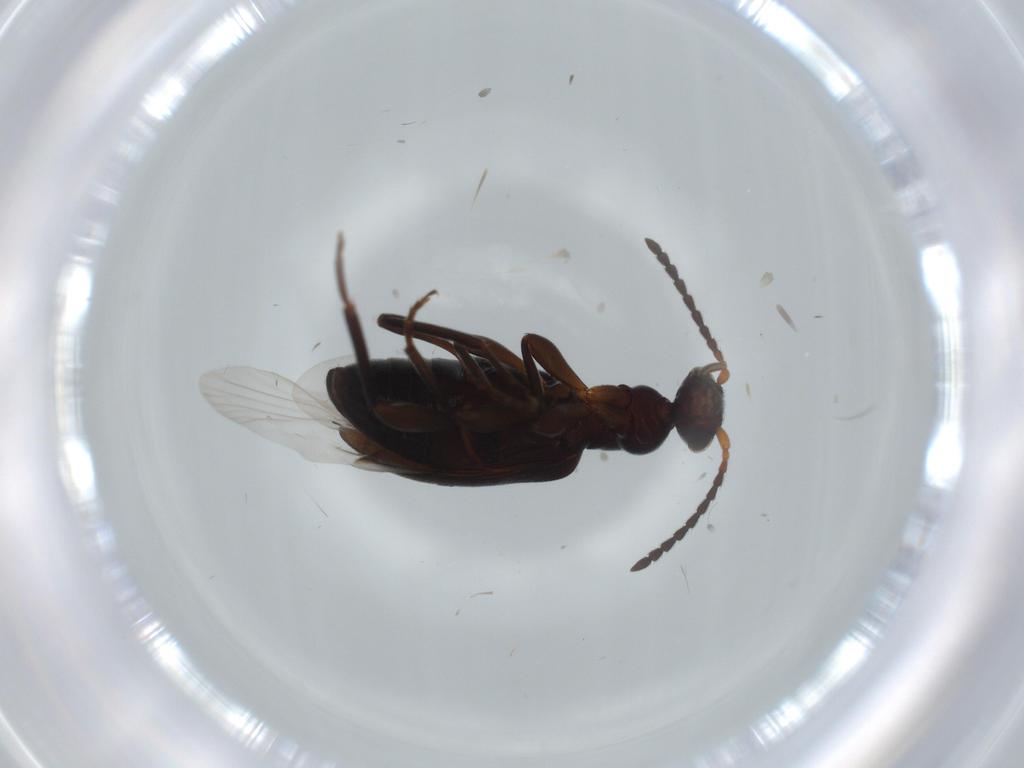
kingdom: Animalia
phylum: Arthropoda
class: Insecta
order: Coleoptera
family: Anthicidae
